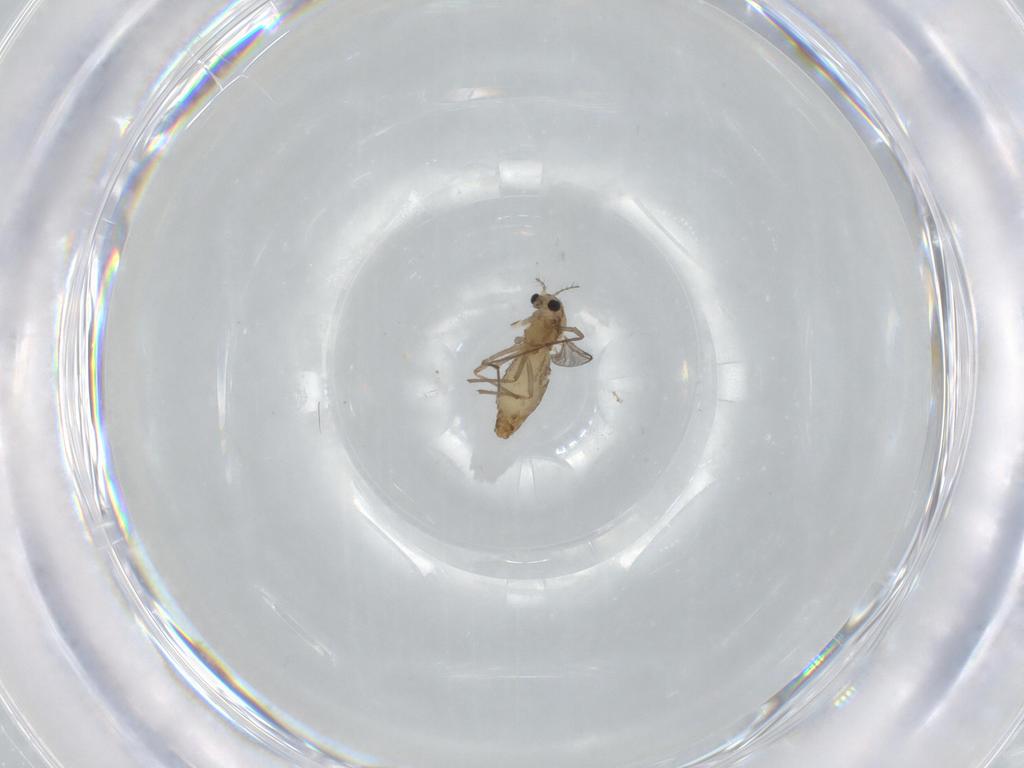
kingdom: Animalia
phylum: Arthropoda
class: Insecta
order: Diptera
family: Chironomidae
